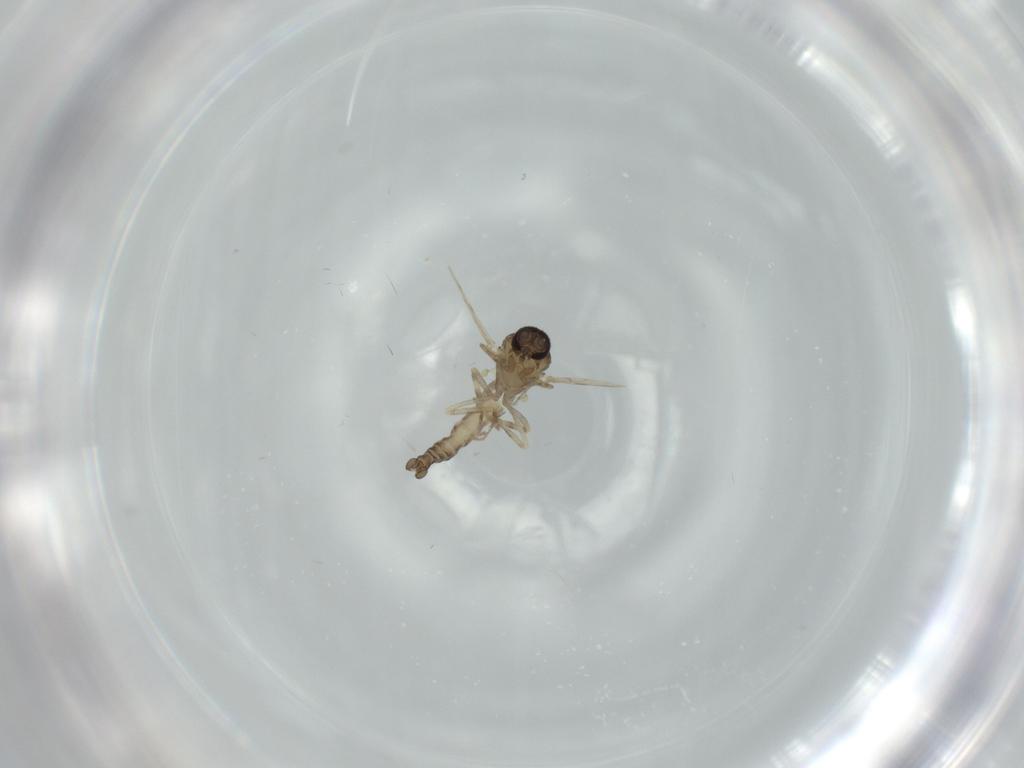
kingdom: Animalia
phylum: Arthropoda
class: Insecta
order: Diptera
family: Ceratopogonidae
